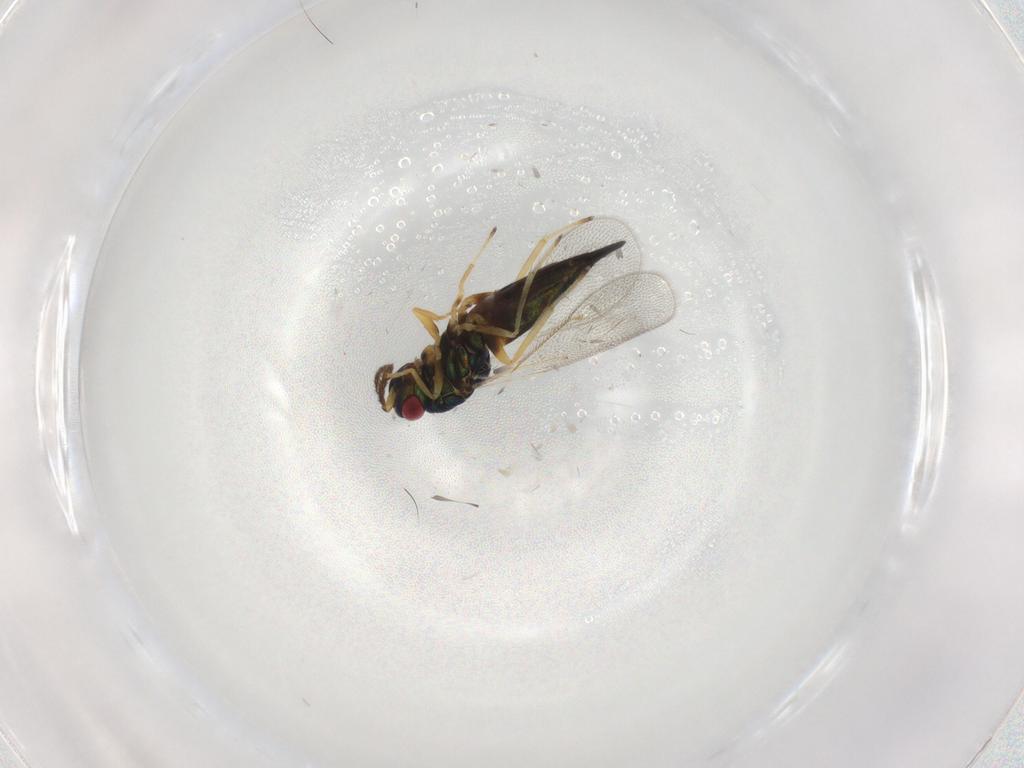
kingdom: Animalia
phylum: Arthropoda
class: Insecta
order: Hymenoptera
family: Eulophidae
